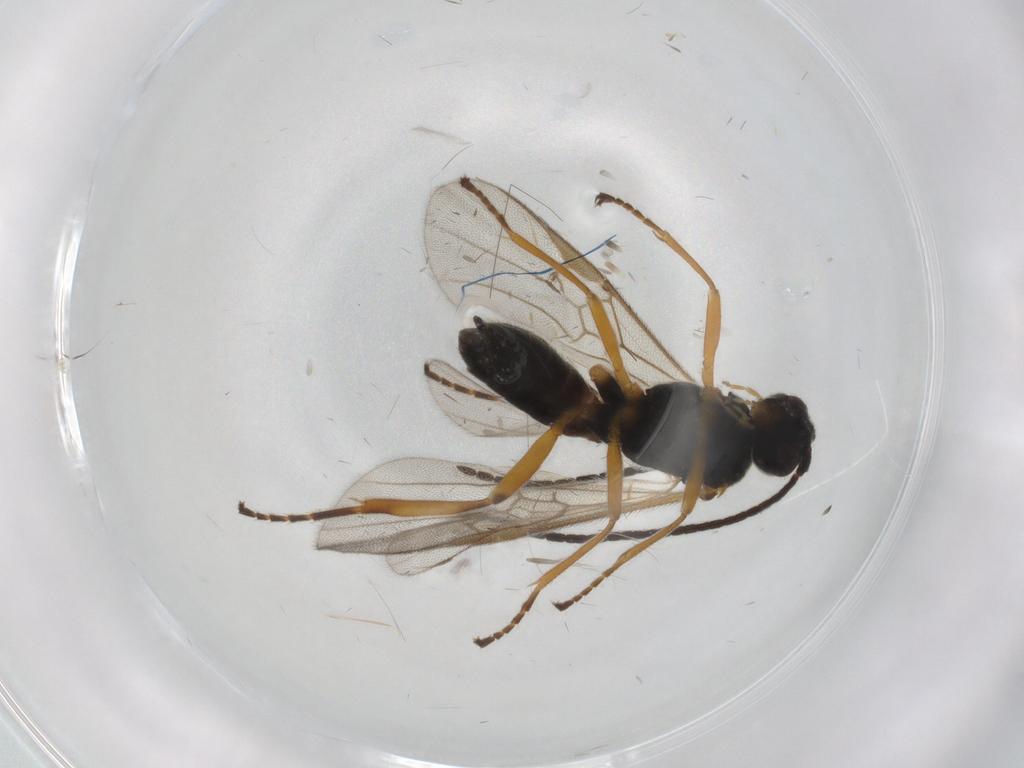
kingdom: Animalia
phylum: Arthropoda
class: Insecta
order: Hymenoptera
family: Braconidae
